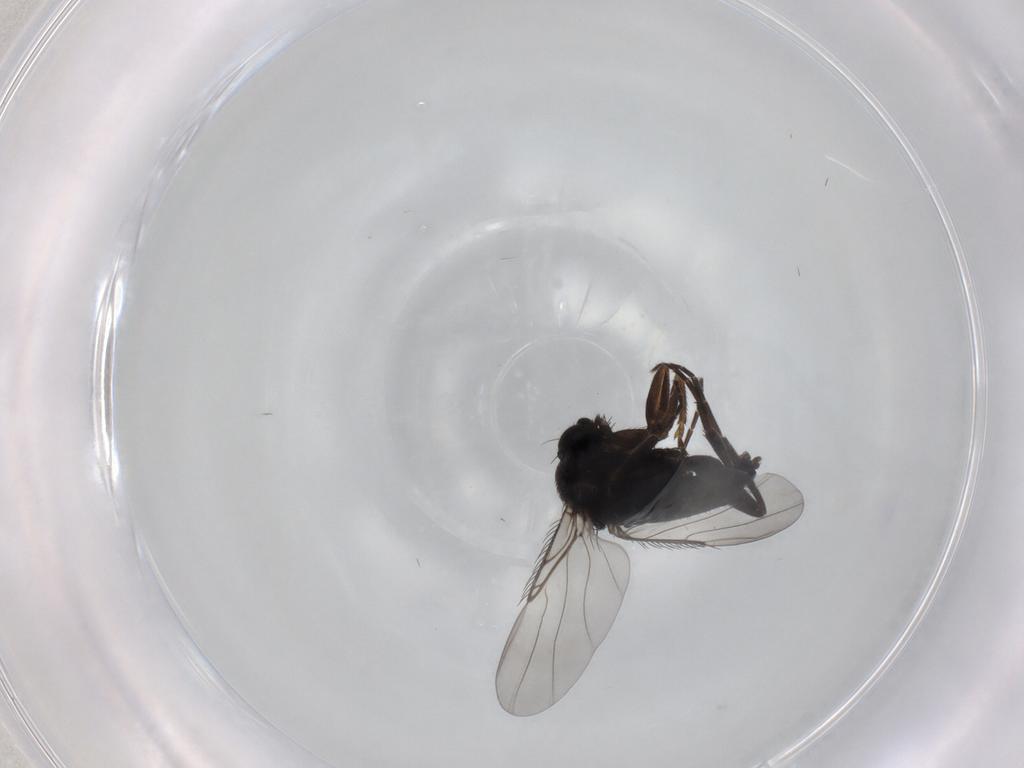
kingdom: Animalia
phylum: Arthropoda
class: Insecta
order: Diptera
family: Phoridae
